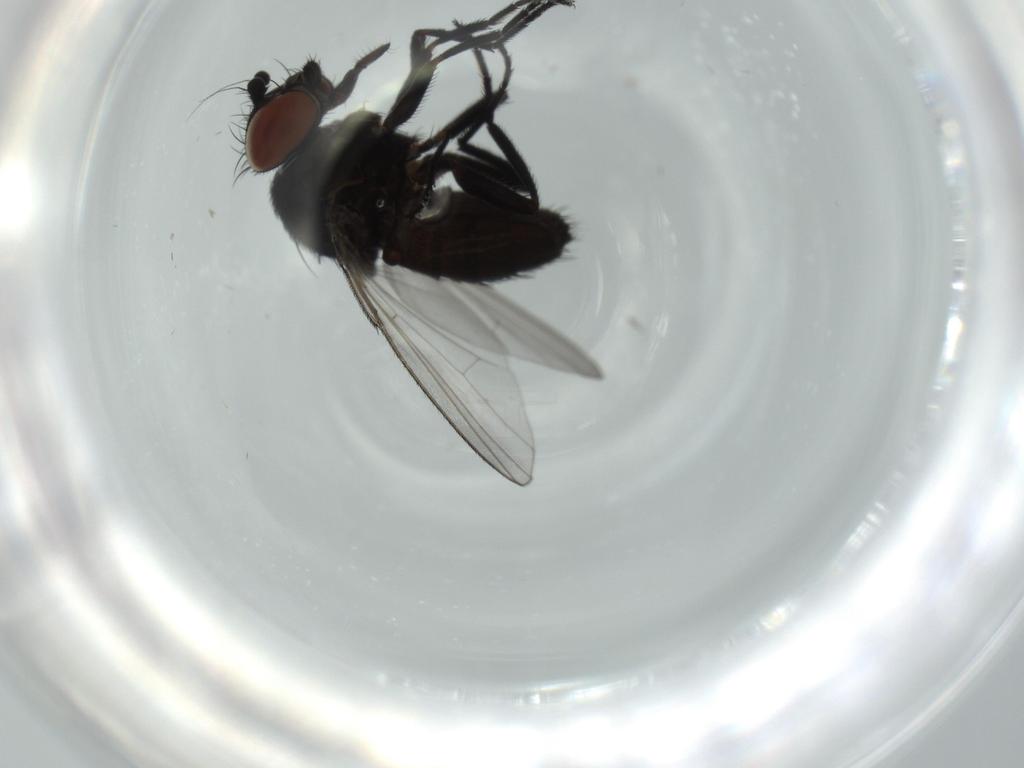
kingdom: Animalia
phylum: Arthropoda
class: Insecta
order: Diptera
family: Milichiidae
